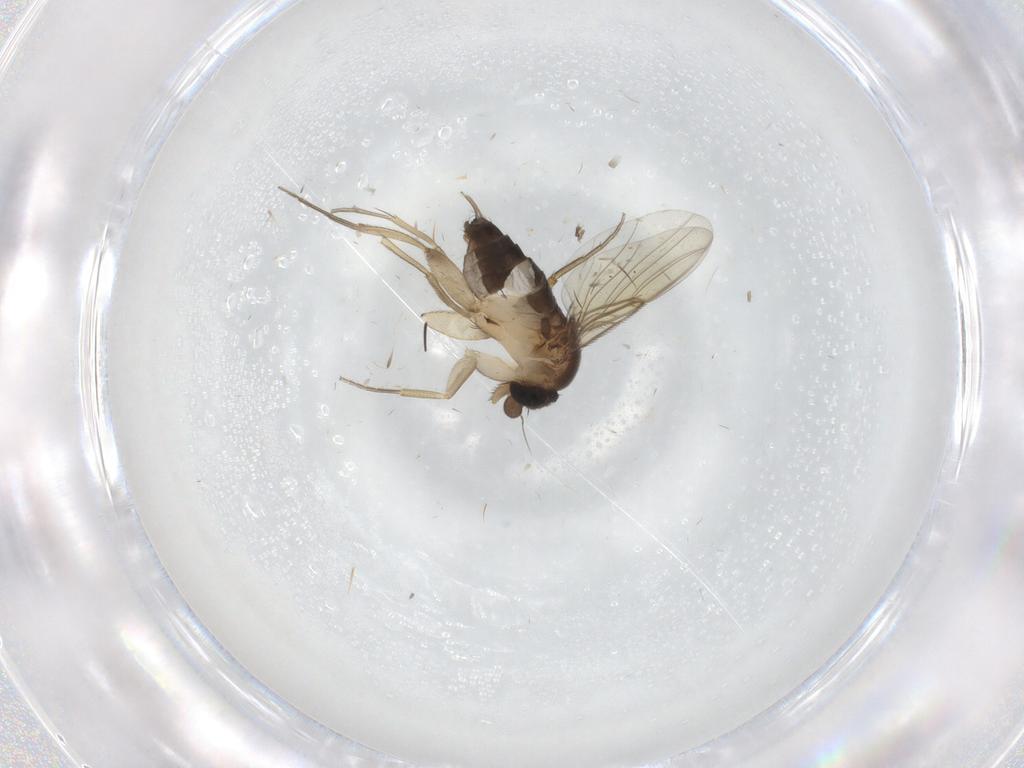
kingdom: Animalia
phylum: Arthropoda
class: Insecta
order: Diptera
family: Phoridae
